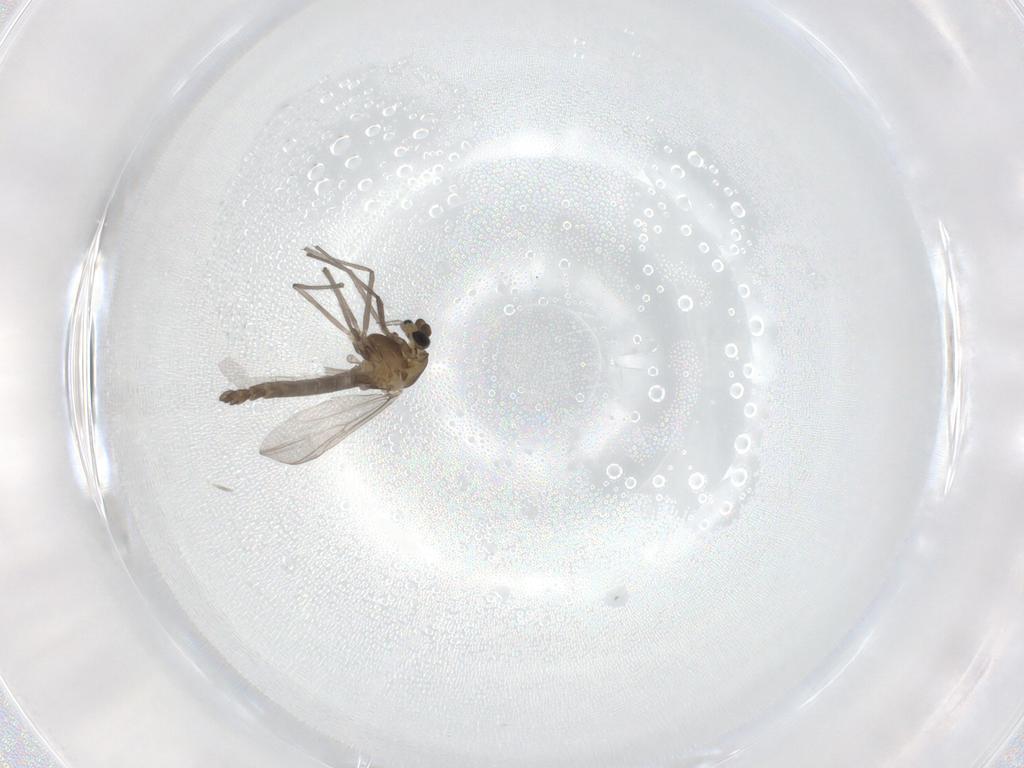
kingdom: Animalia
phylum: Arthropoda
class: Insecta
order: Diptera
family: Chironomidae
